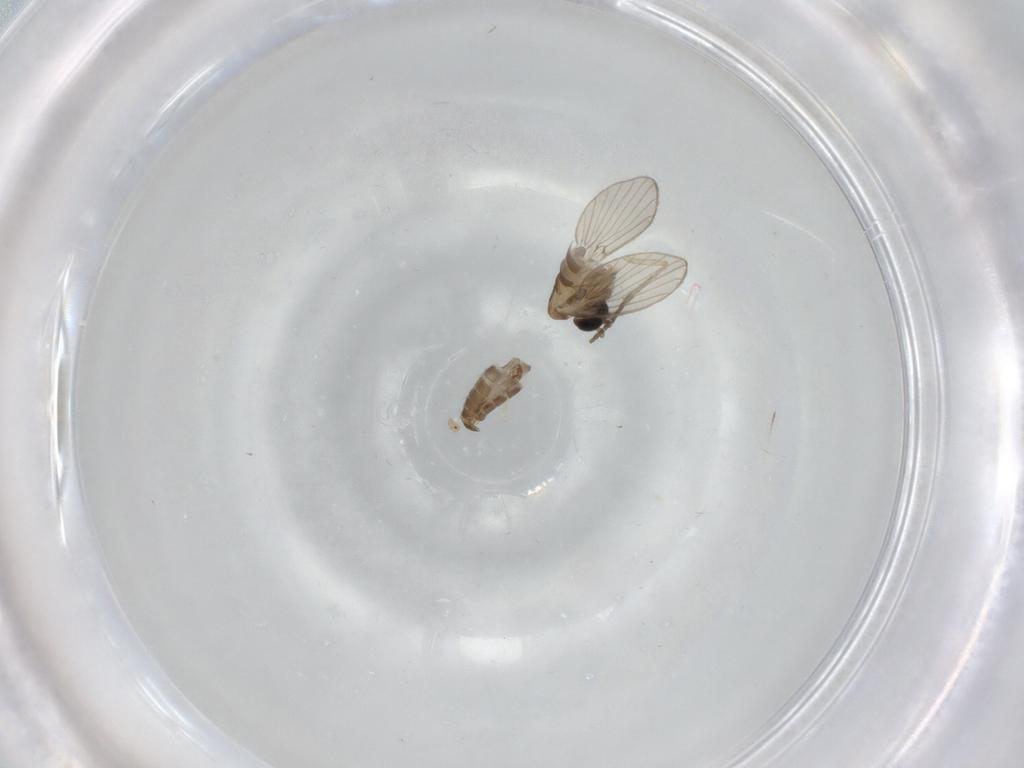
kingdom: Animalia
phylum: Arthropoda
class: Insecta
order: Diptera
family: Psychodidae
